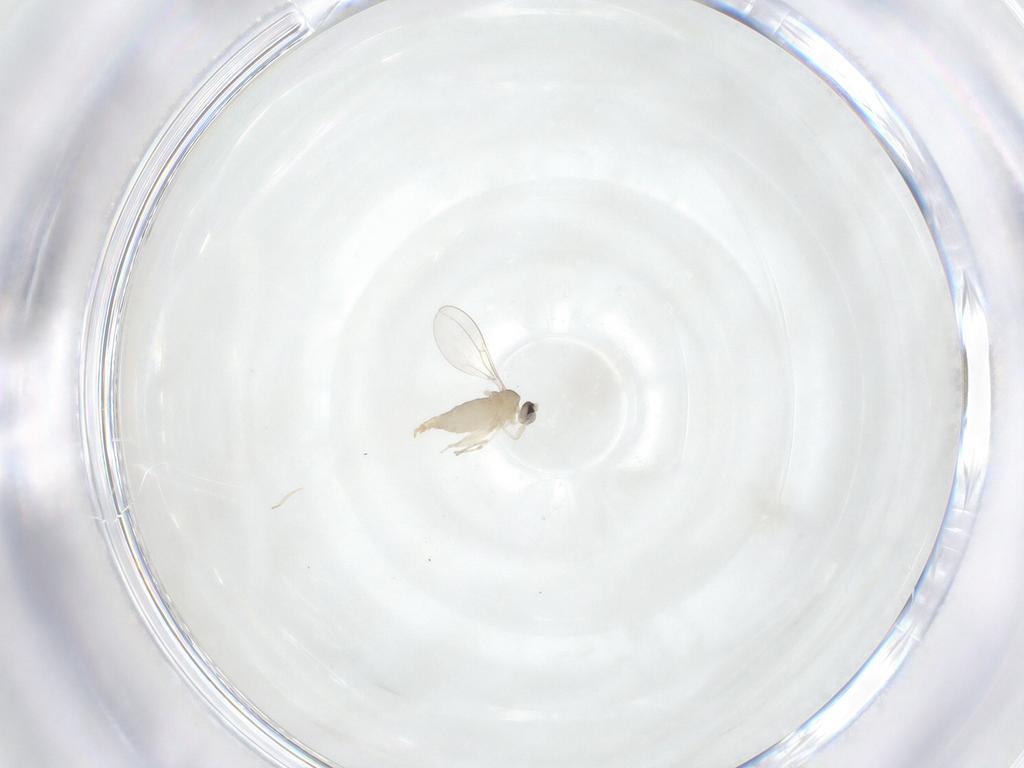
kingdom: Animalia
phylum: Arthropoda
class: Insecta
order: Diptera
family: Cecidomyiidae
